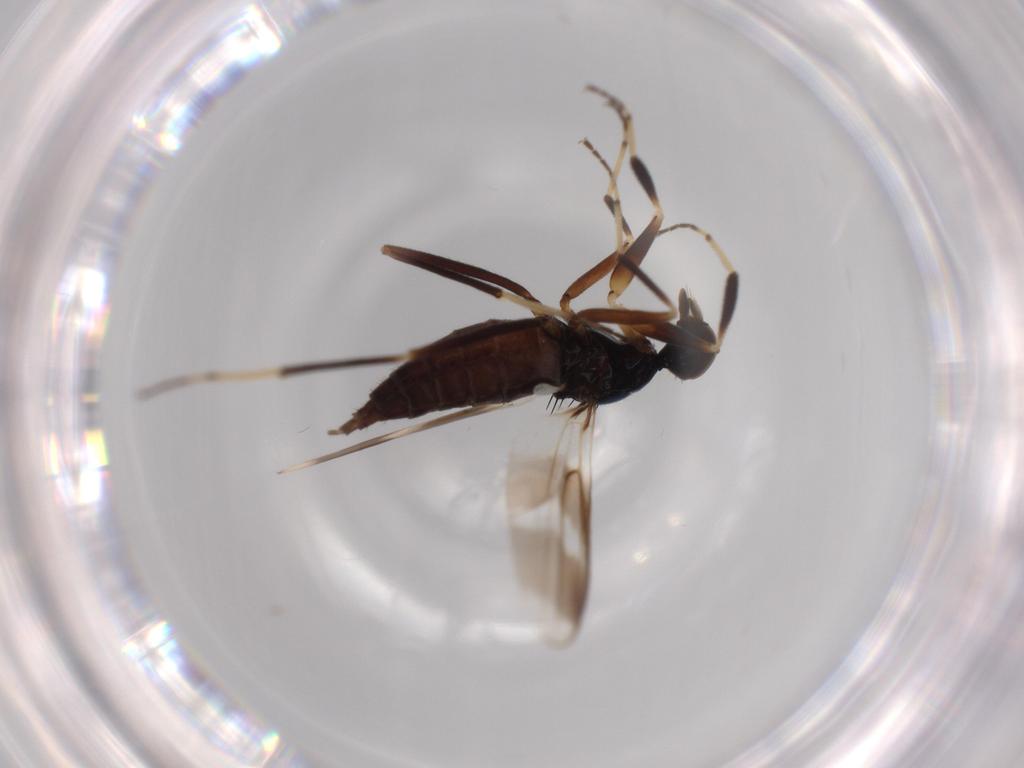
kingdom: Animalia
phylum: Arthropoda
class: Insecta
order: Diptera
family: Hybotidae
